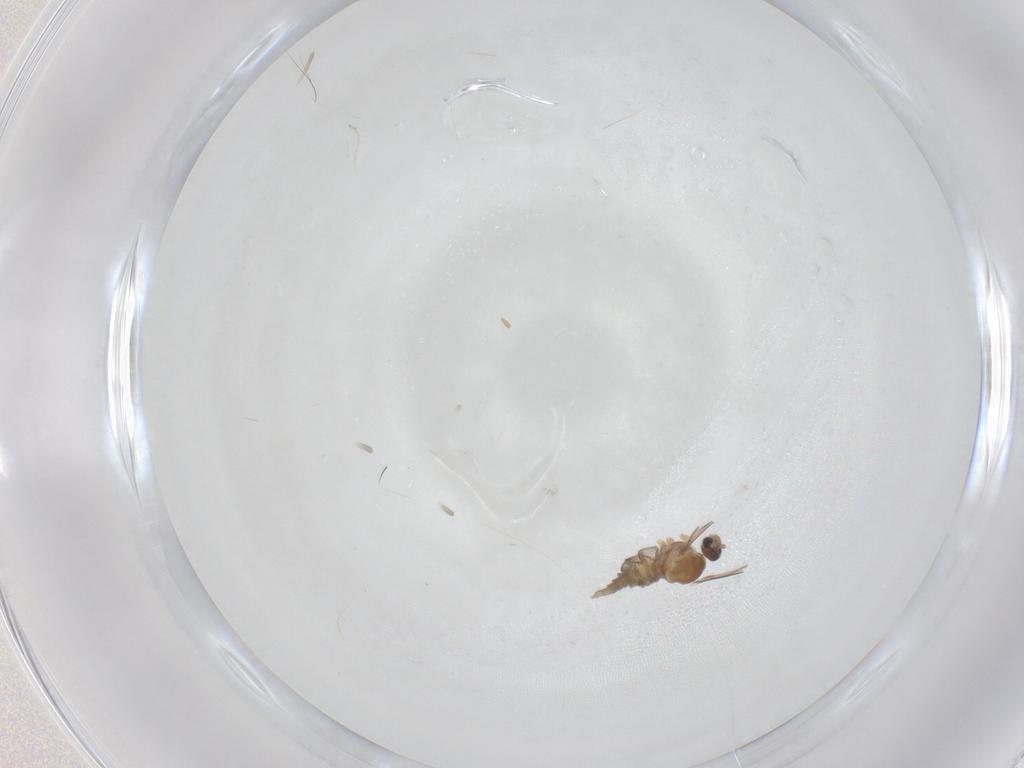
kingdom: Animalia
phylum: Arthropoda
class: Insecta
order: Diptera
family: Cecidomyiidae
